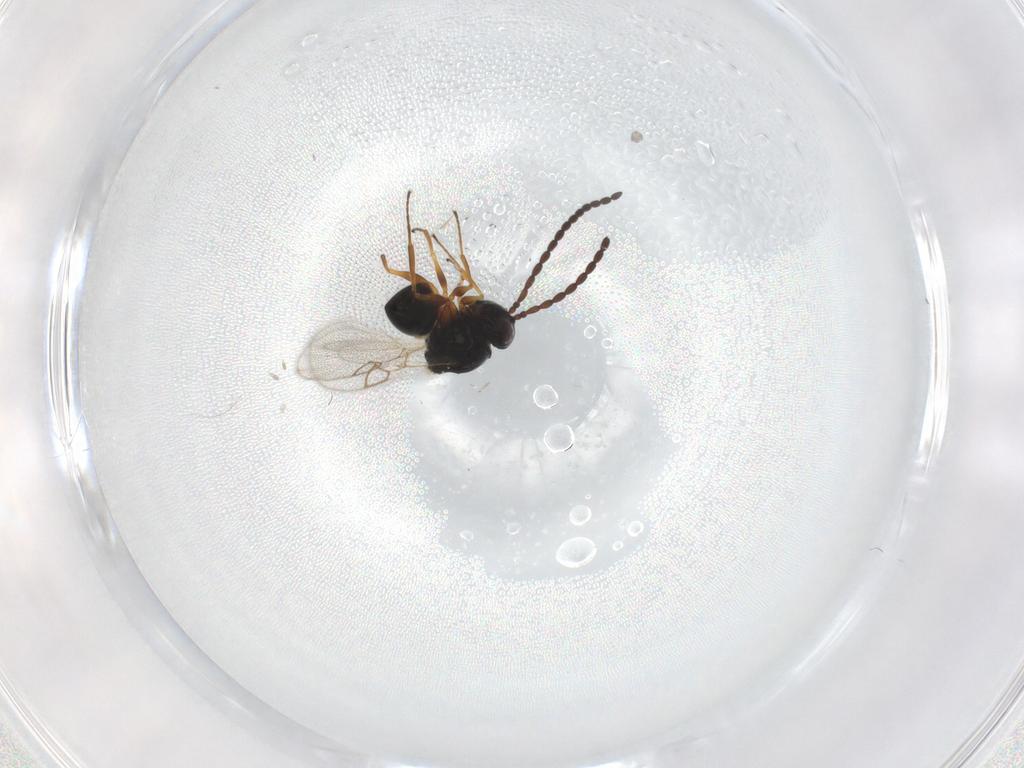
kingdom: Animalia
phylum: Arthropoda
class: Insecta
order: Hymenoptera
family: Figitidae
